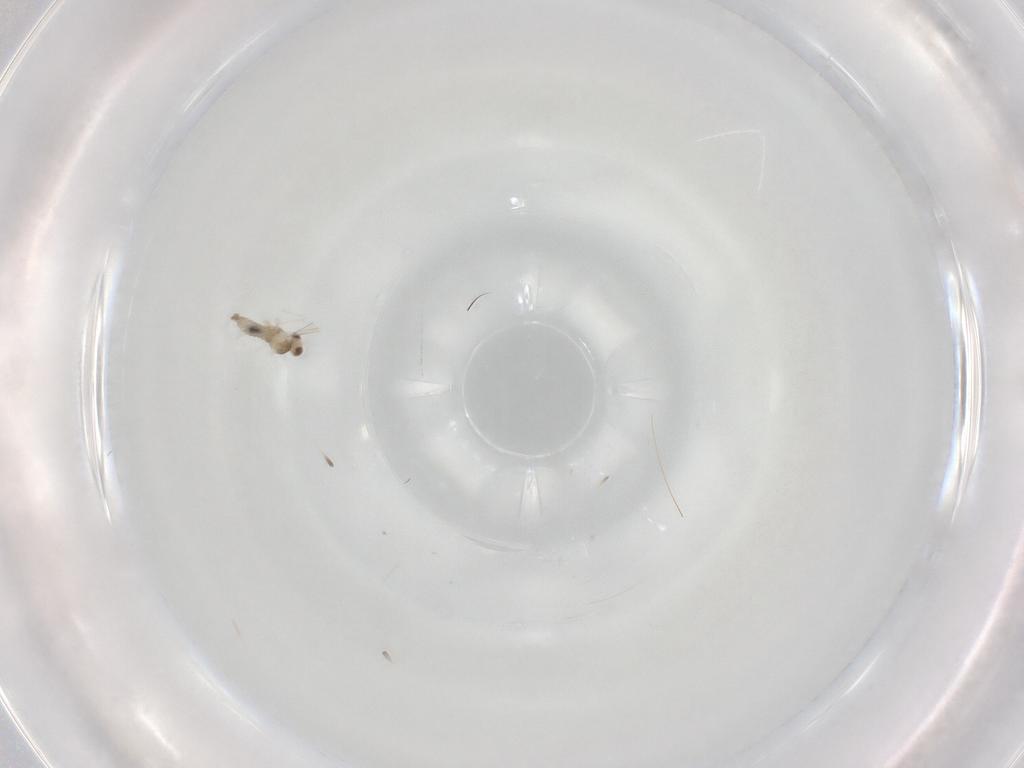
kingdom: Animalia
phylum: Arthropoda
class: Insecta
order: Diptera
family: Cecidomyiidae
